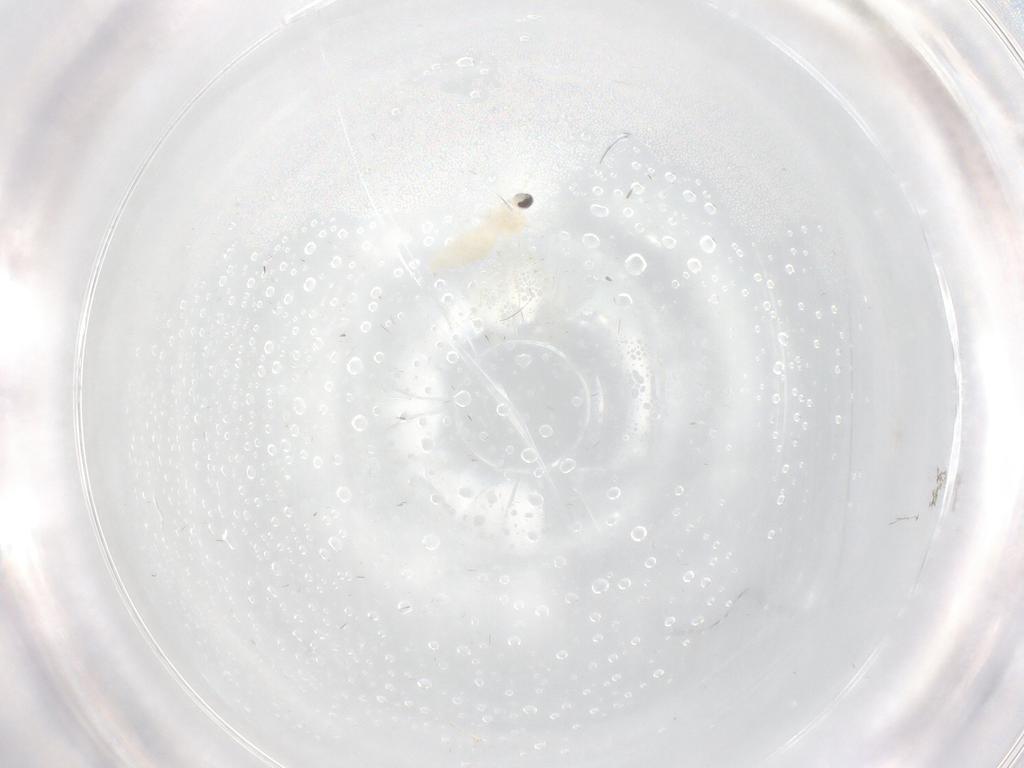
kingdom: Animalia
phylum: Arthropoda
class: Insecta
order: Diptera
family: Cecidomyiidae
